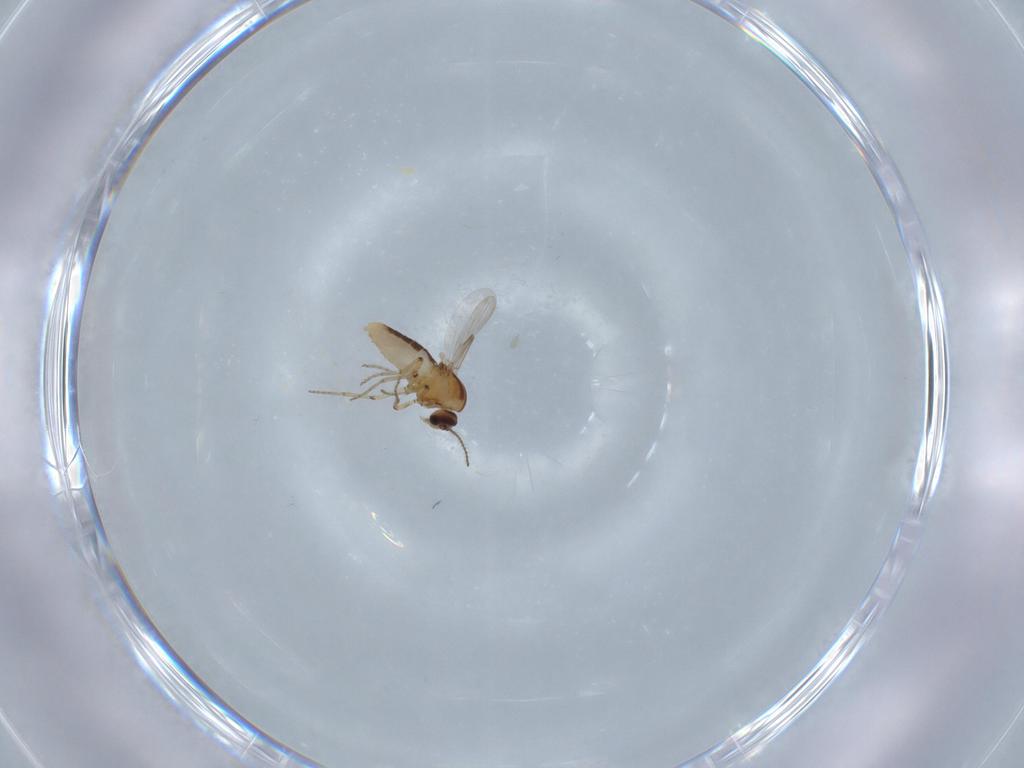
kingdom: Animalia
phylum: Arthropoda
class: Insecta
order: Diptera
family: Ceratopogonidae
